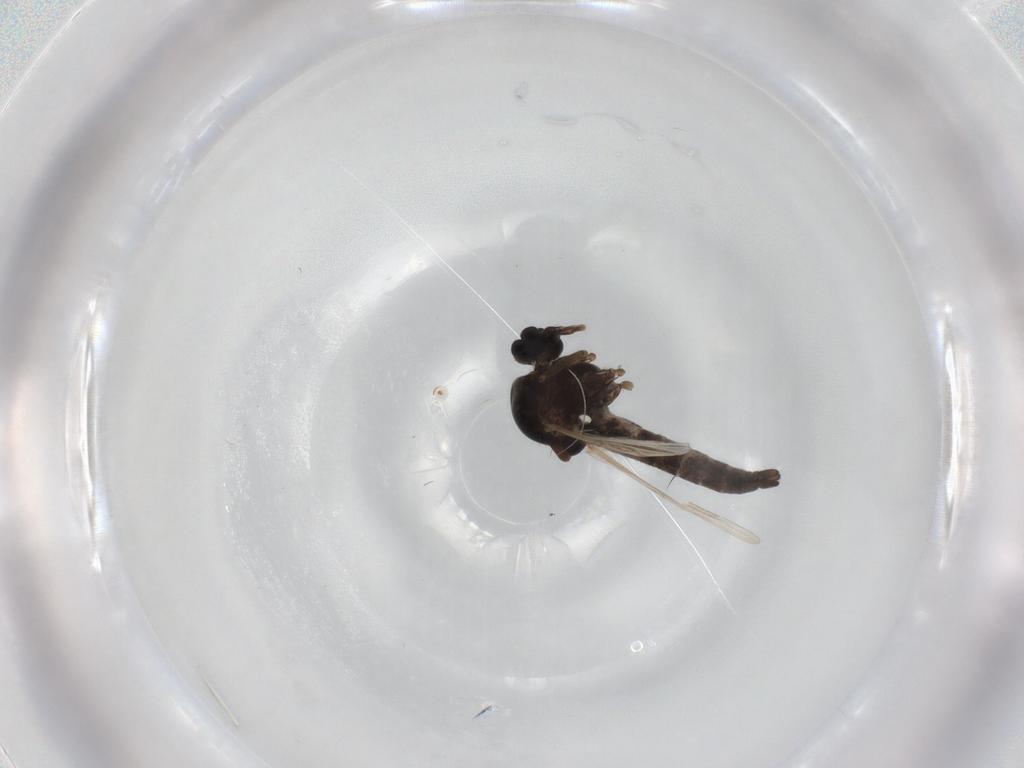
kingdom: Animalia
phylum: Arthropoda
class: Insecta
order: Diptera
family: Ceratopogonidae
